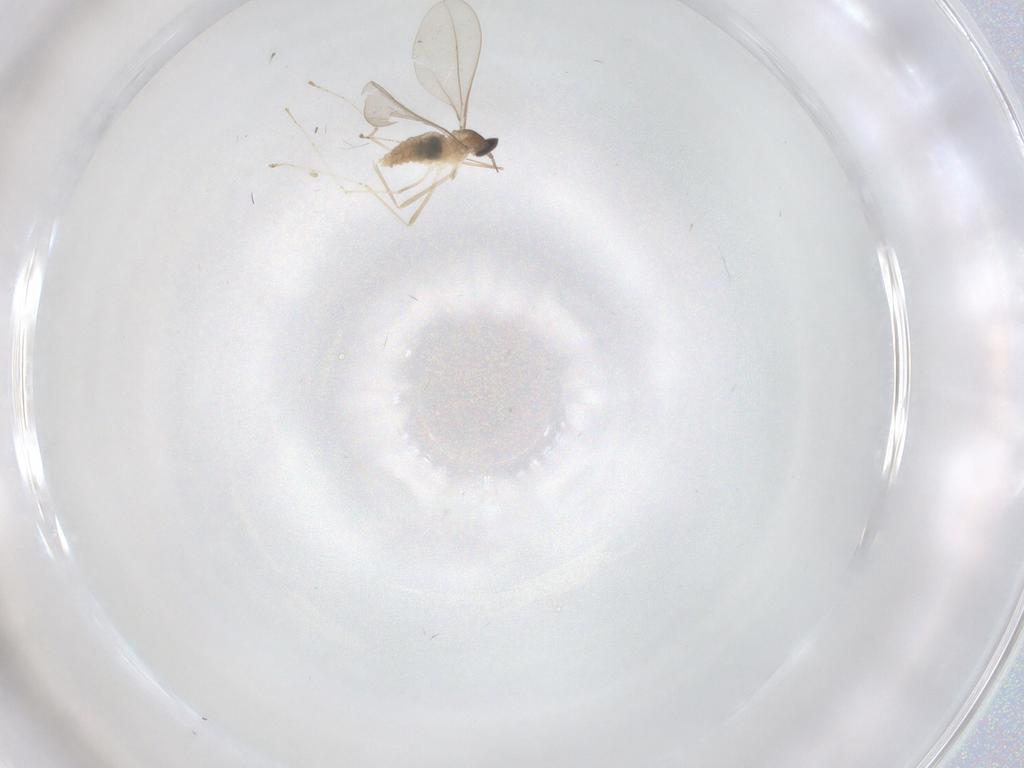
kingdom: Animalia
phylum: Arthropoda
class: Insecta
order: Diptera
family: Cecidomyiidae
